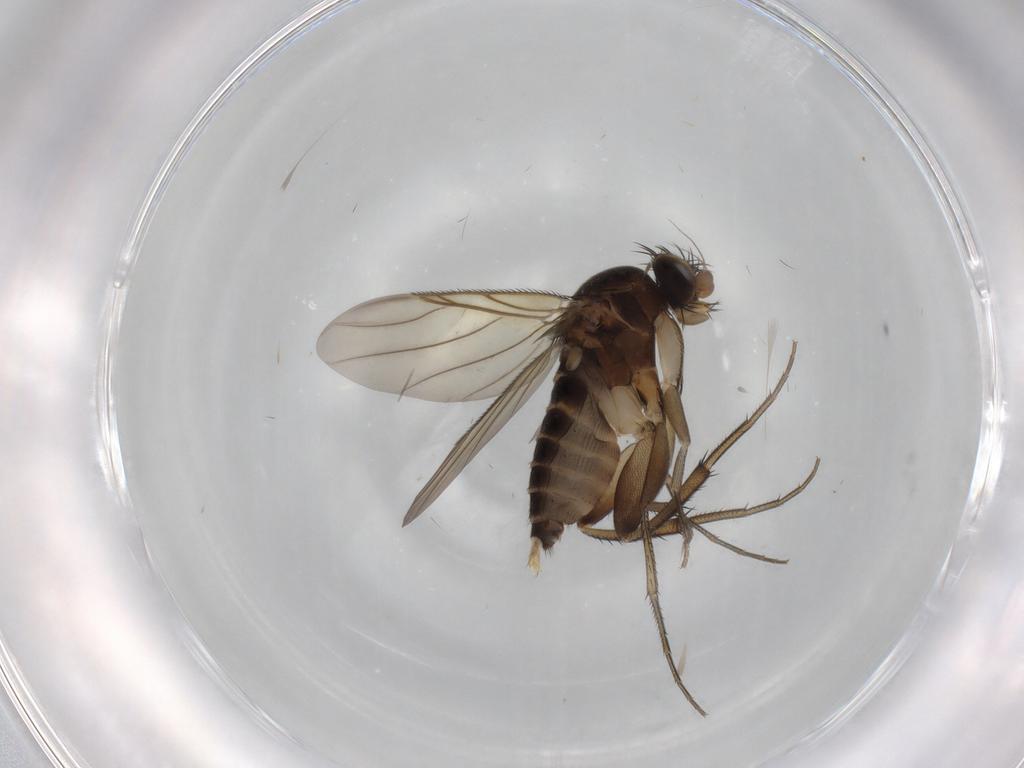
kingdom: Animalia
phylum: Arthropoda
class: Insecta
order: Diptera
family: Phoridae
